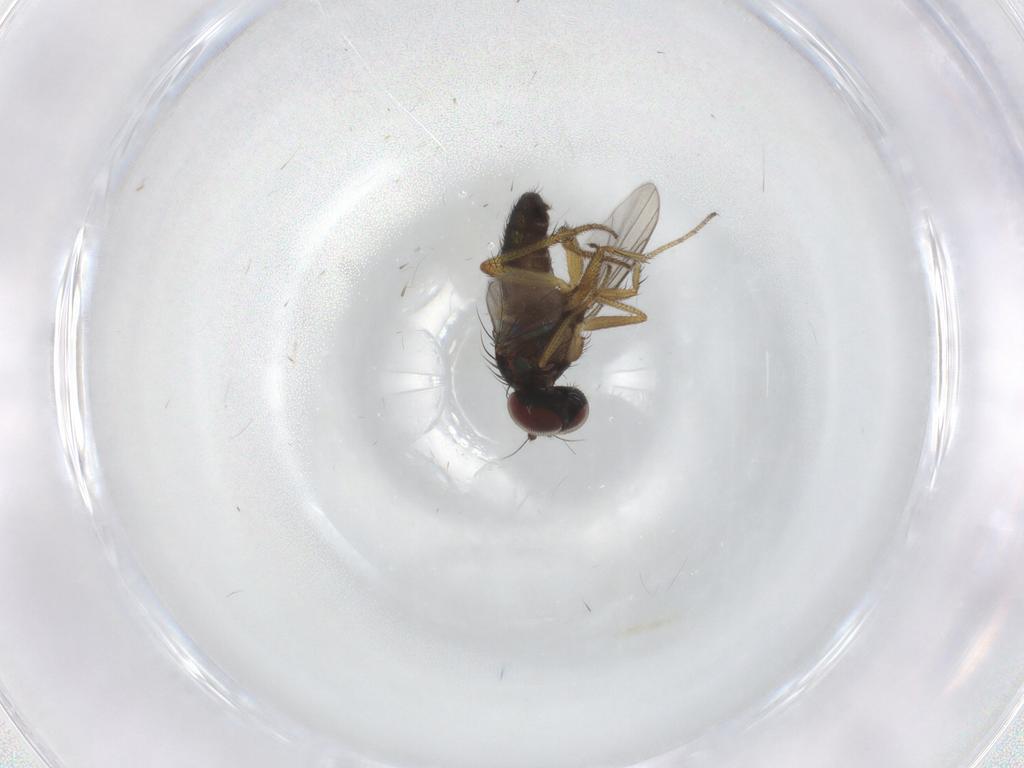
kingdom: Animalia
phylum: Arthropoda
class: Insecta
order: Diptera
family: Dolichopodidae
